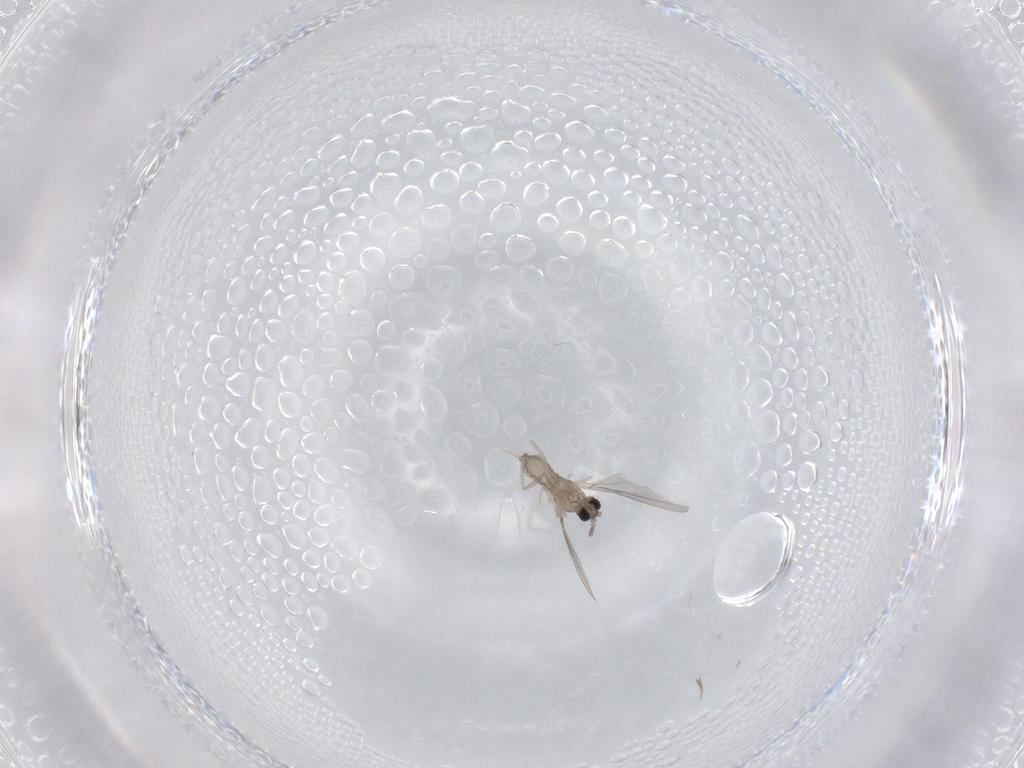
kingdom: Animalia
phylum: Arthropoda
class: Insecta
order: Diptera
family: Cecidomyiidae
